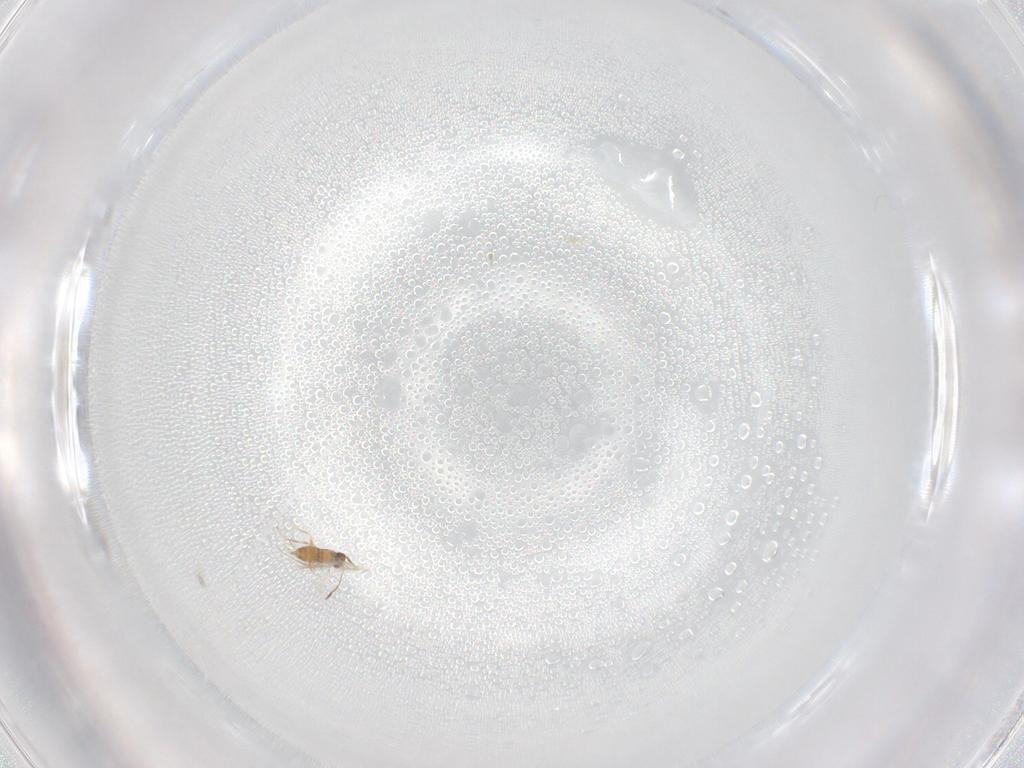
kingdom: Animalia
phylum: Arthropoda
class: Insecta
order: Hymenoptera
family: Mymaridae
